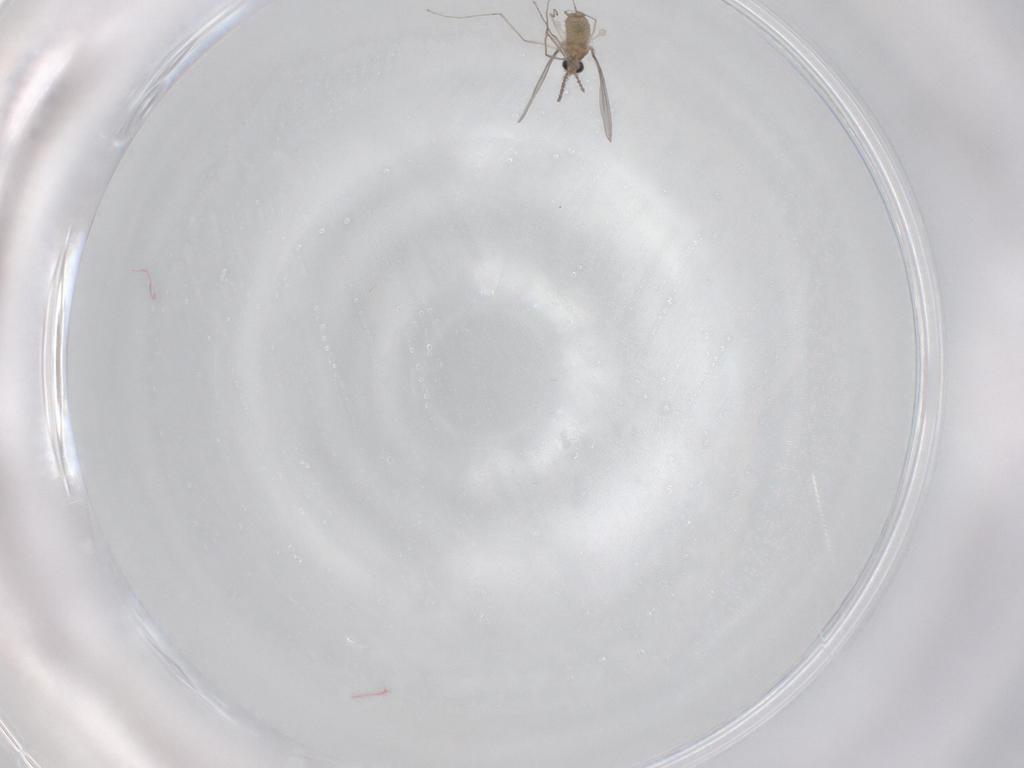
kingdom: Animalia
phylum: Arthropoda
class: Insecta
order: Diptera
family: Cecidomyiidae
